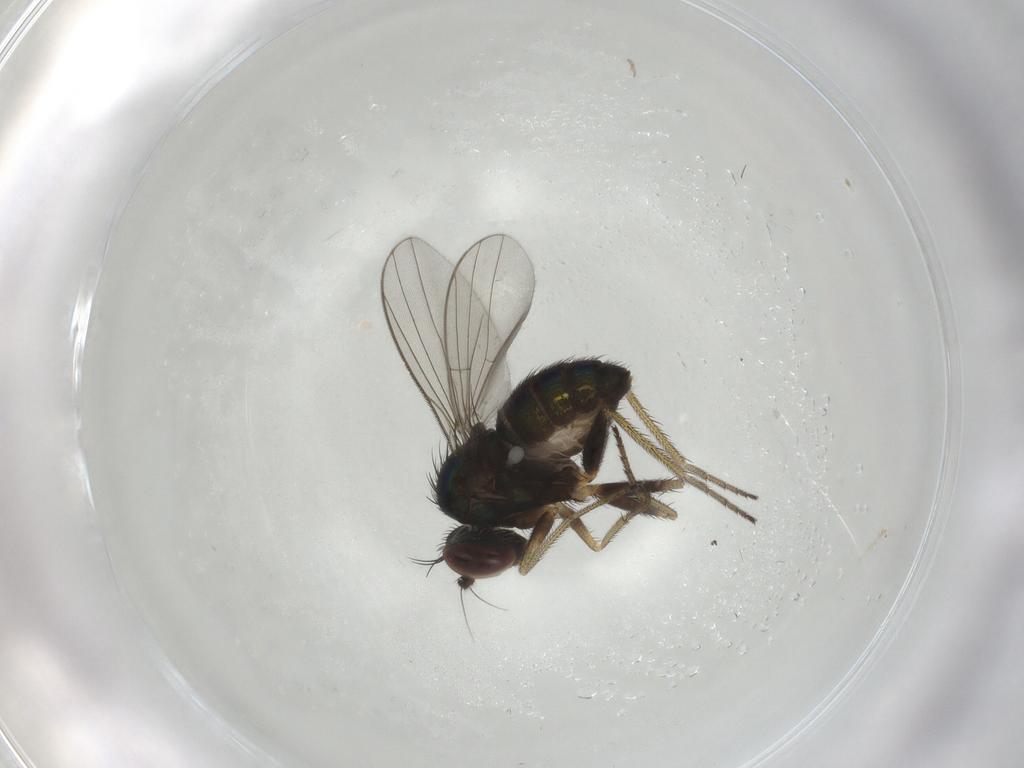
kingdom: Animalia
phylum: Arthropoda
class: Insecta
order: Diptera
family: Dolichopodidae
